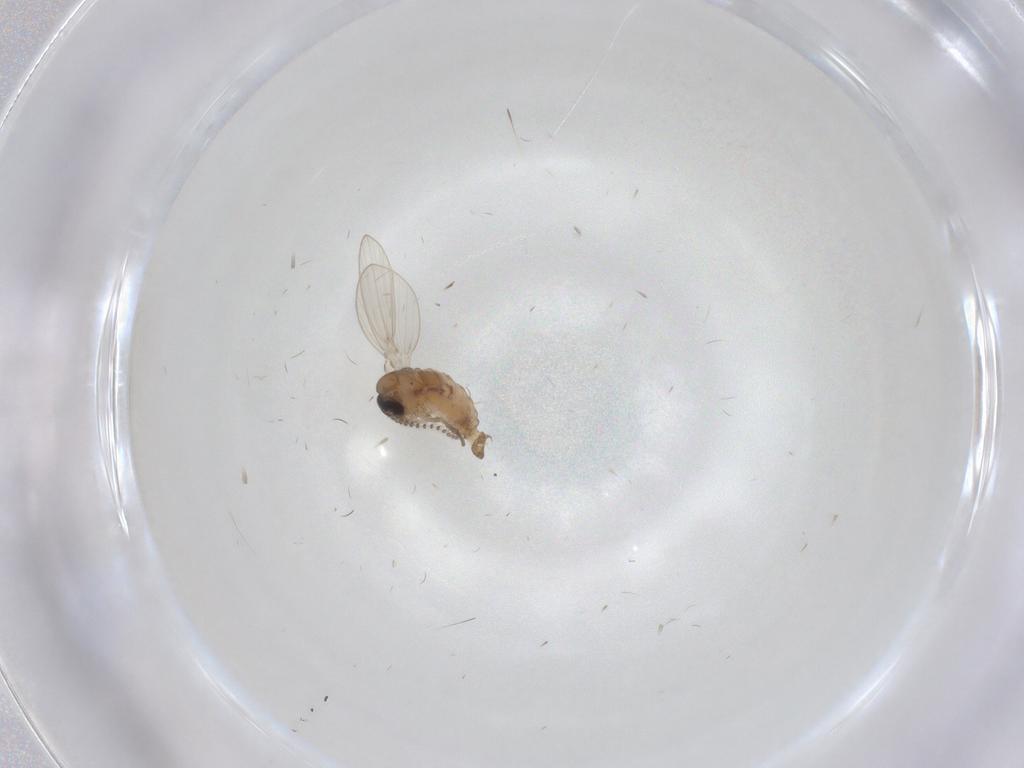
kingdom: Animalia
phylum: Arthropoda
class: Insecta
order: Diptera
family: Psychodidae
